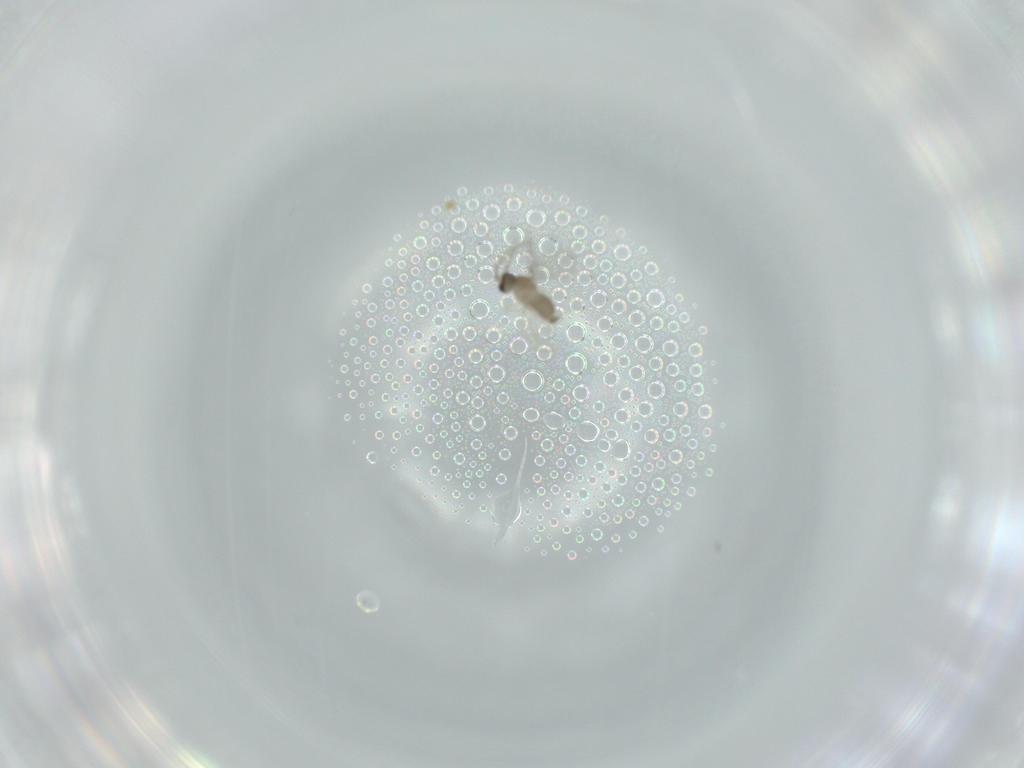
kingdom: Animalia
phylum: Arthropoda
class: Insecta
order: Diptera
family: Cecidomyiidae
